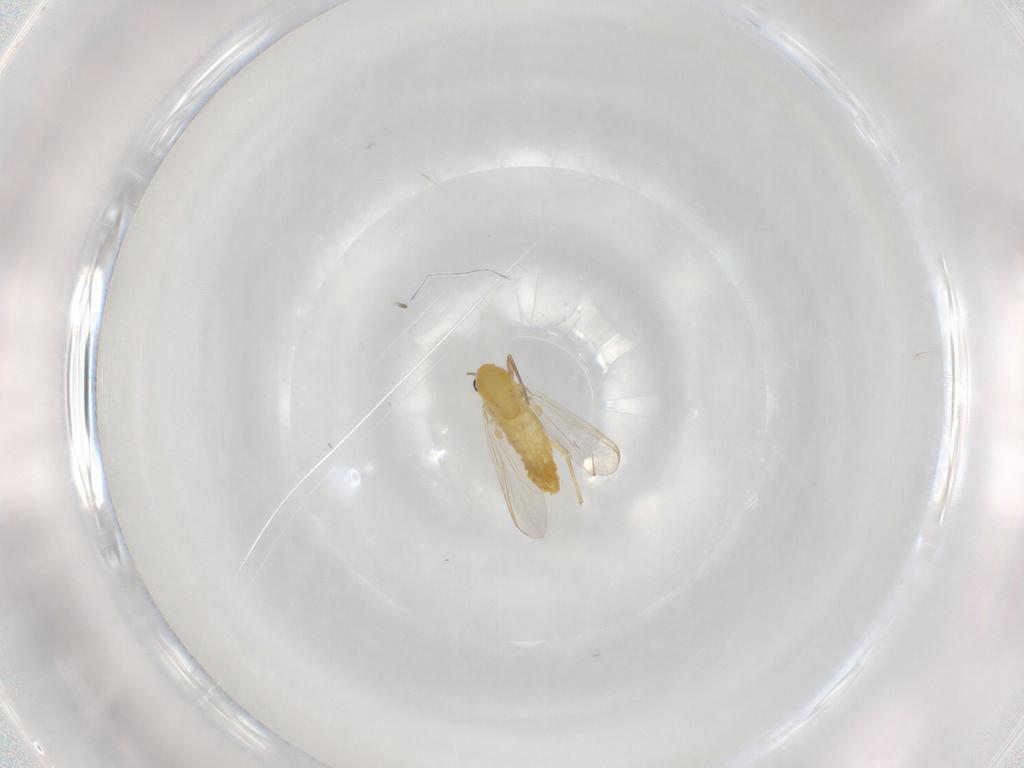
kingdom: Animalia
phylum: Arthropoda
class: Insecta
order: Diptera
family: Chironomidae
